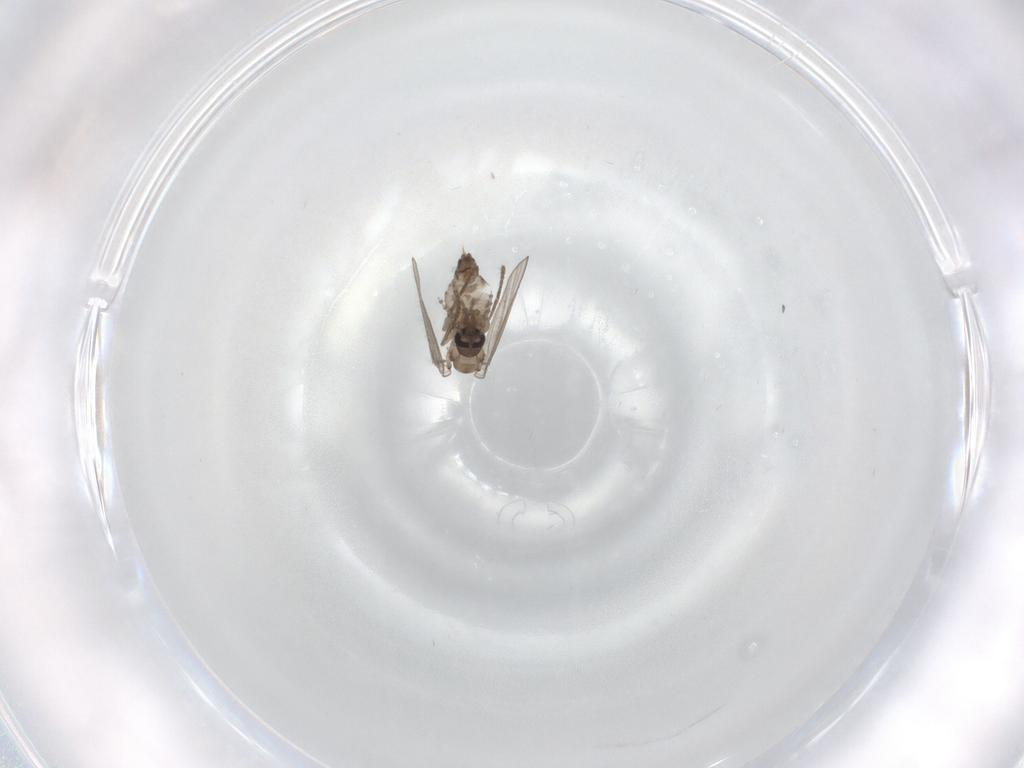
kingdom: Animalia
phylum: Arthropoda
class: Insecta
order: Diptera
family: Psychodidae
